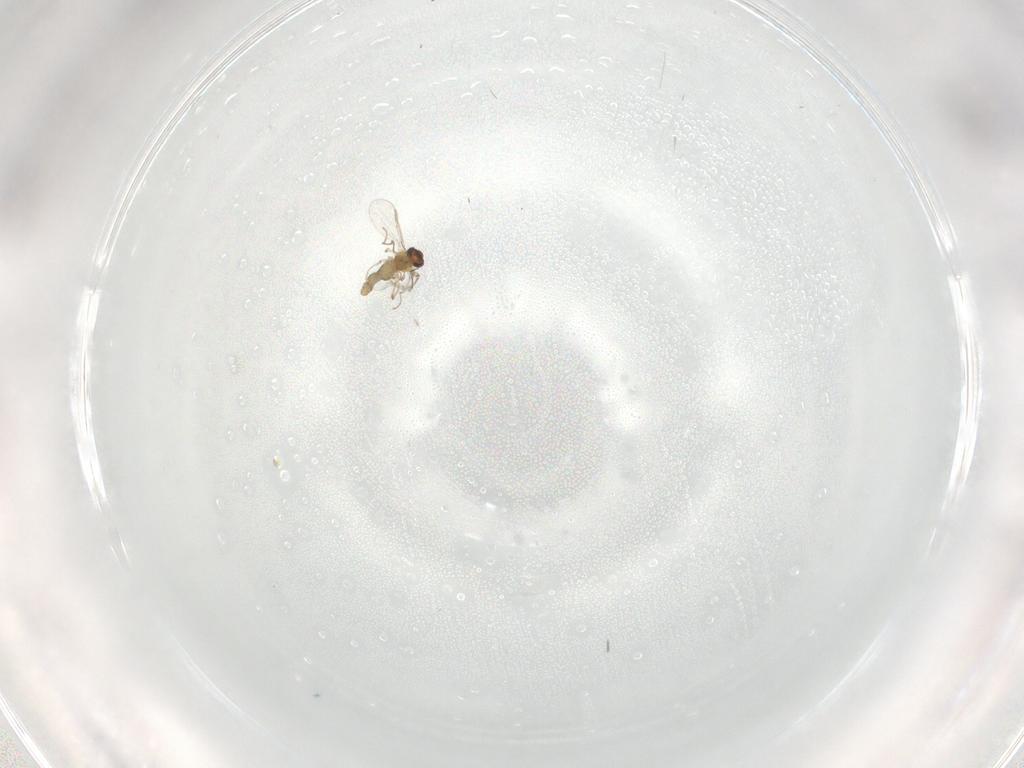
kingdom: Animalia
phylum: Arthropoda
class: Insecta
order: Diptera
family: Chironomidae
